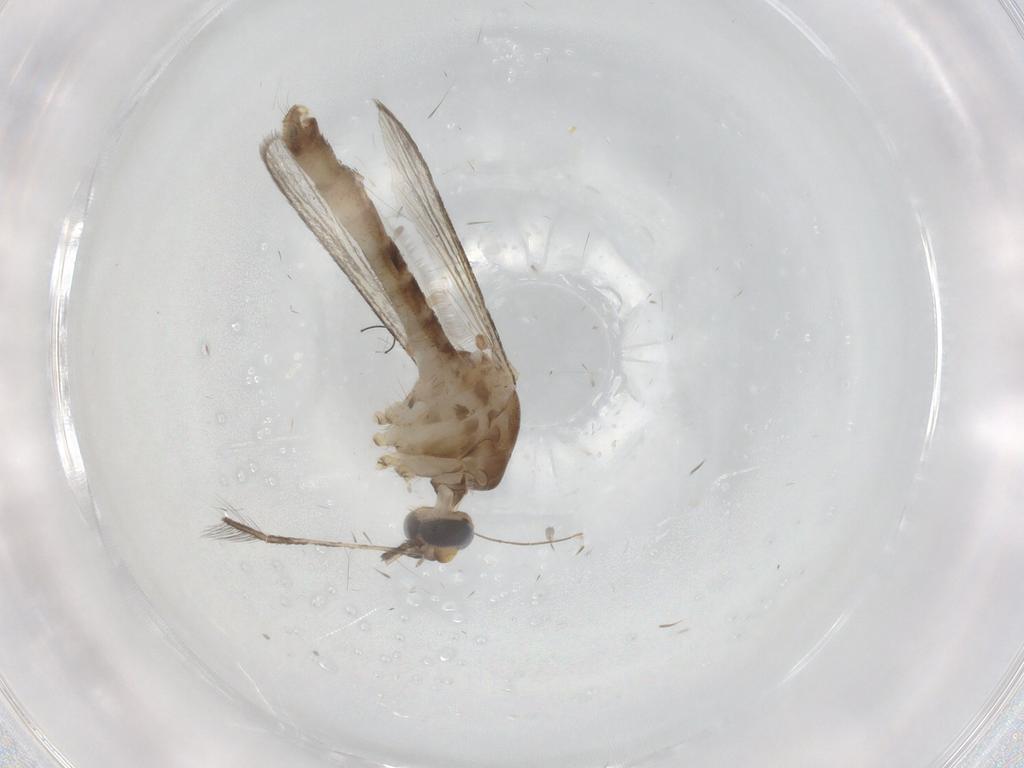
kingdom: Animalia
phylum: Arthropoda
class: Insecta
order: Diptera
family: Psychodidae
